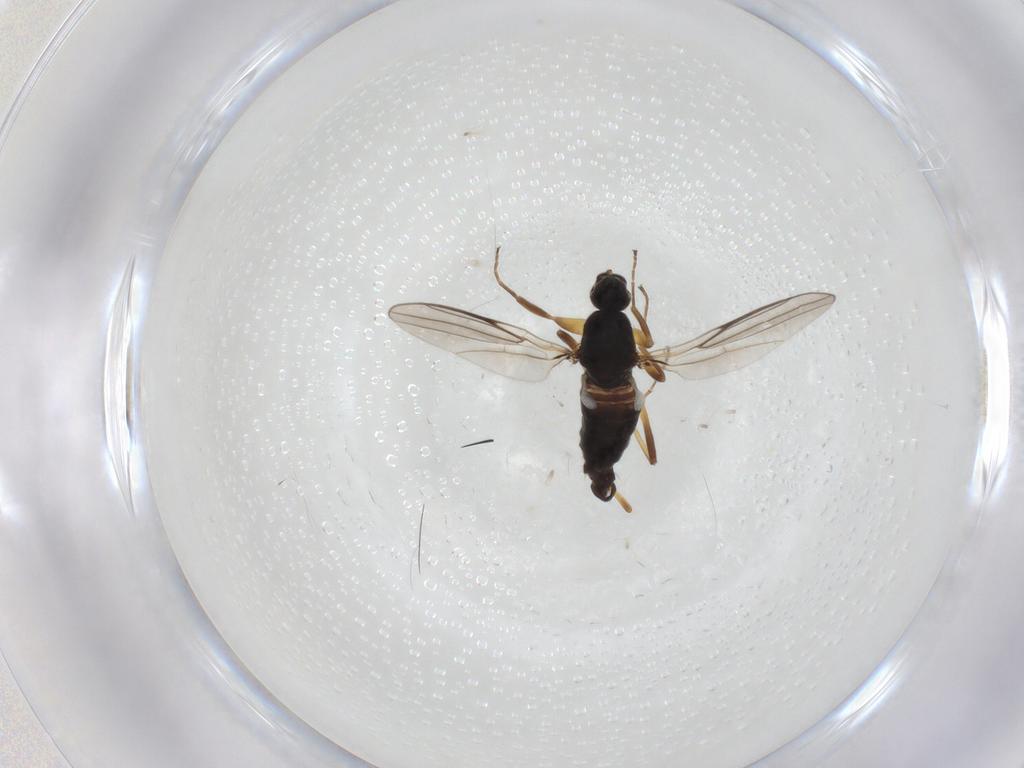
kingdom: Animalia
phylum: Arthropoda
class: Insecta
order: Diptera
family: Hybotidae
